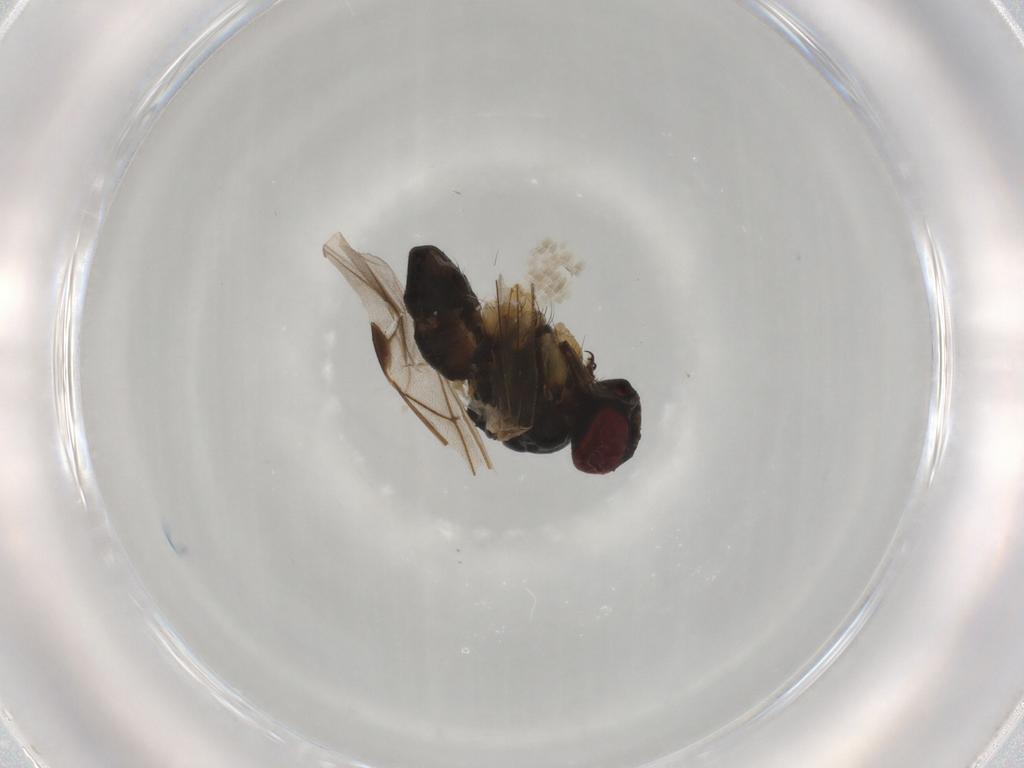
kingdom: Animalia
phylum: Arthropoda
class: Insecta
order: Diptera
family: Muscidae
